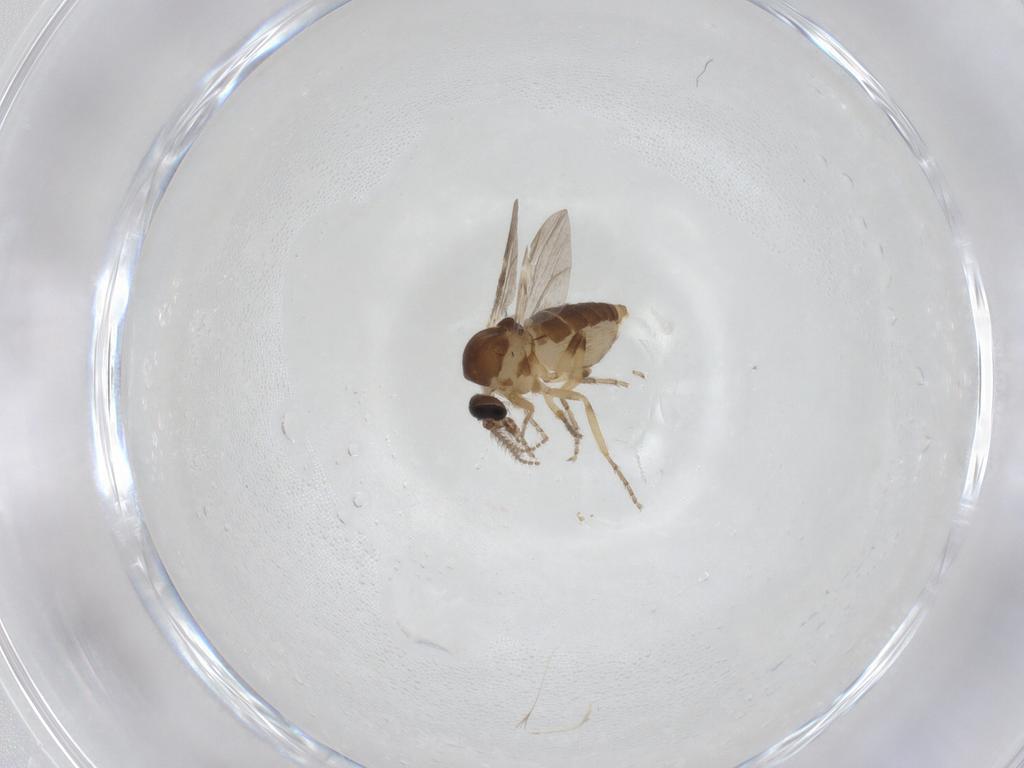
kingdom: Animalia
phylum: Arthropoda
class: Insecta
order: Diptera
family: Ceratopogonidae
